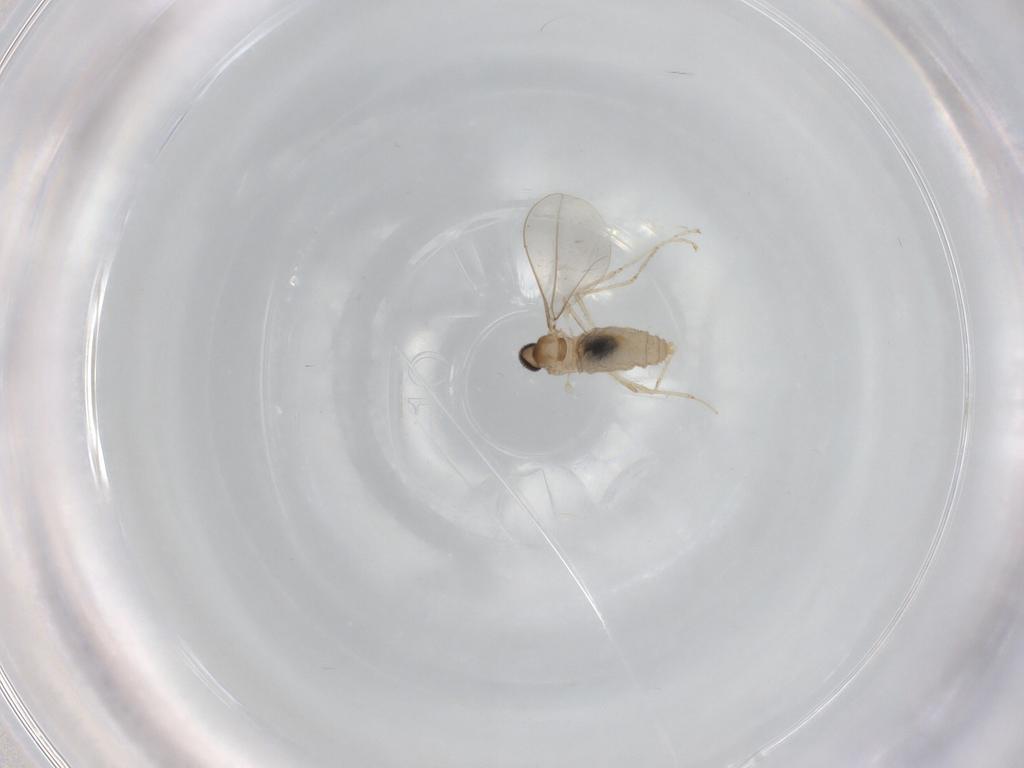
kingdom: Animalia
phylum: Arthropoda
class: Insecta
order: Diptera
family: Cecidomyiidae
